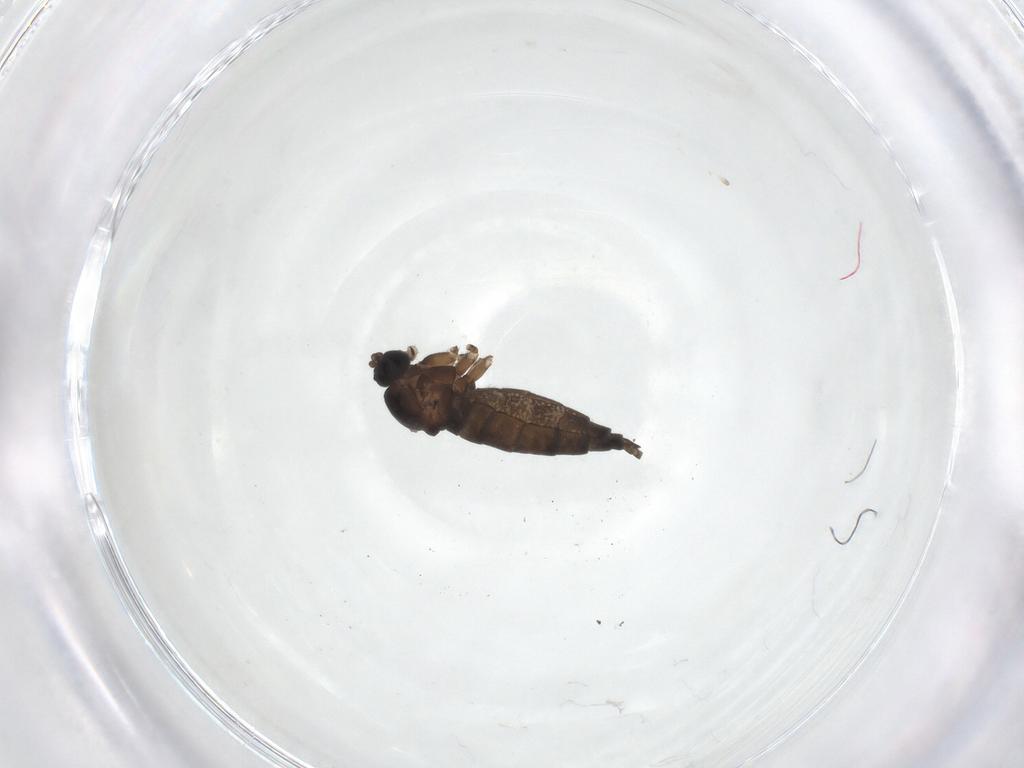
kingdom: Animalia
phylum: Arthropoda
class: Insecta
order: Diptera
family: Sciaridae
